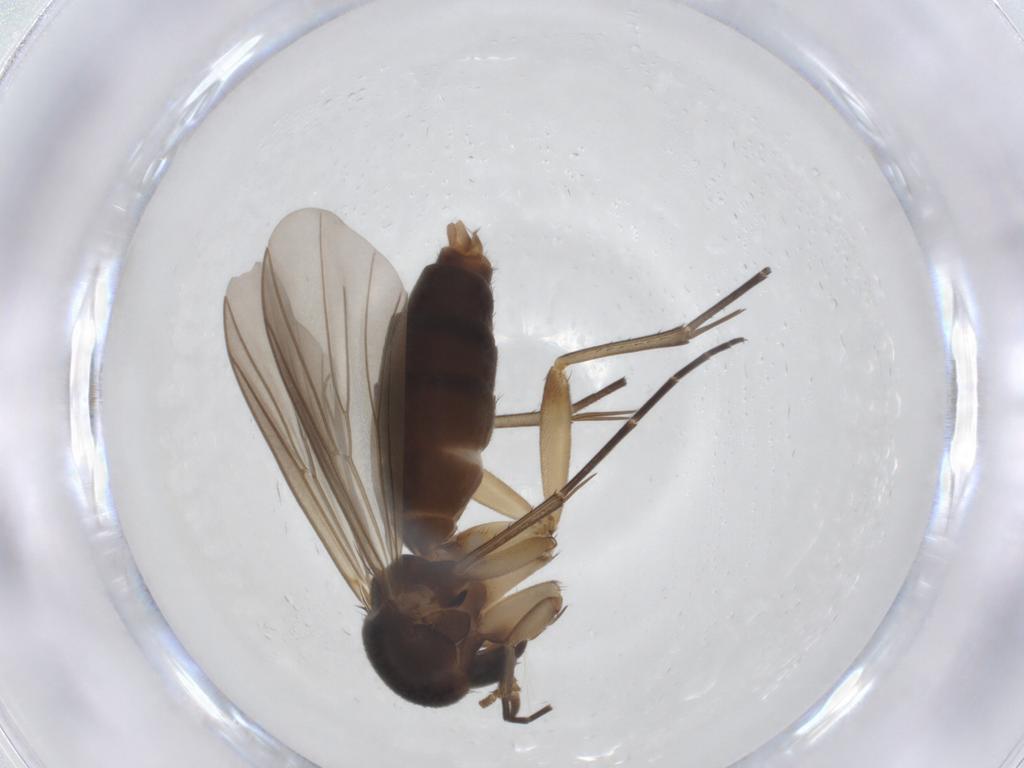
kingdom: Animalia
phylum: Arthropoda
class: Insecta
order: Diptera
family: Mycetophilidae
